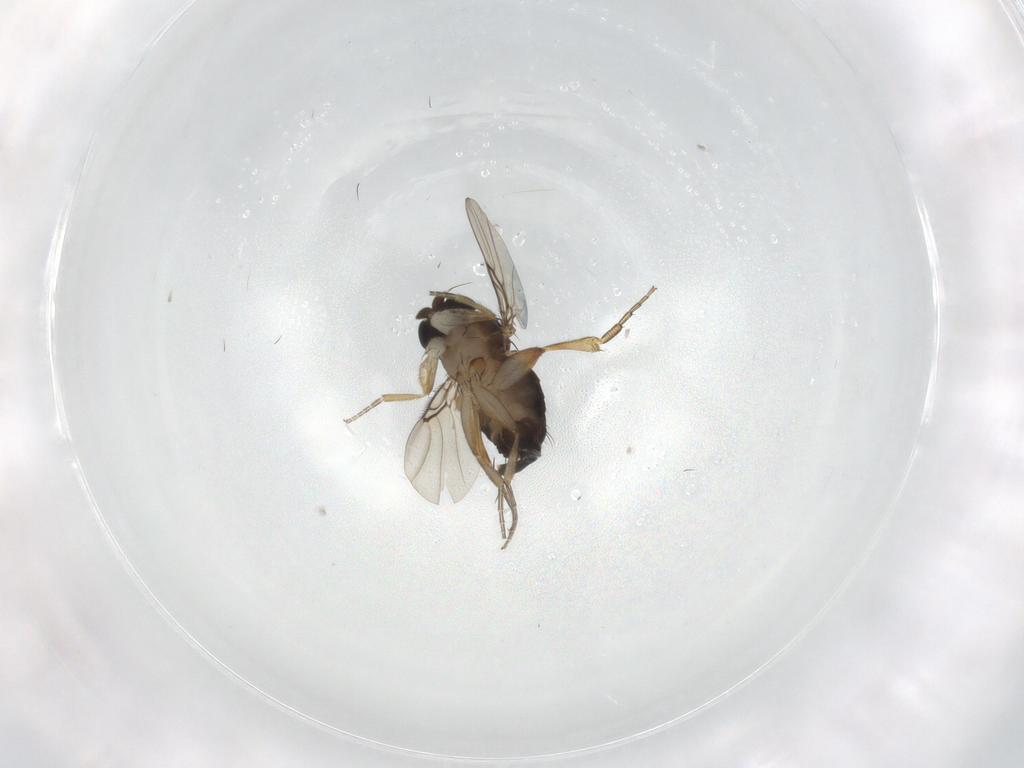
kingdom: Animalia
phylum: Arthropoda
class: Insecta
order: Diptera
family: Phoridae
